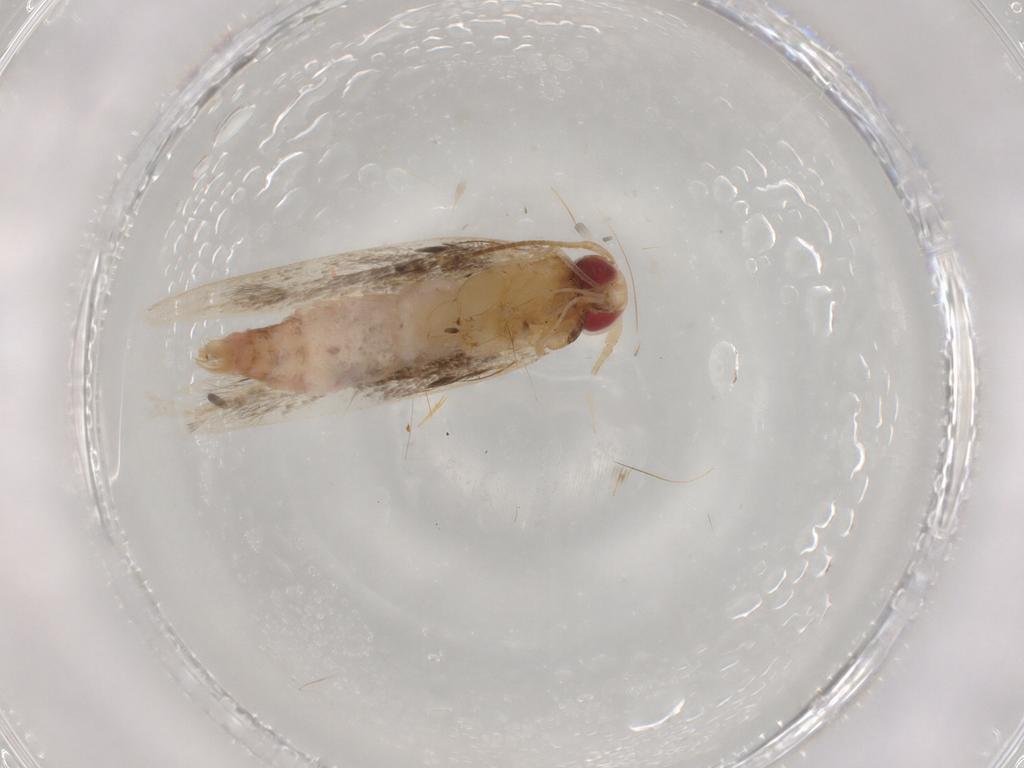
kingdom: Animalia
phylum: Arthropoda
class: Insecta
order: Lepidoptera
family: Cosmopterigidae
